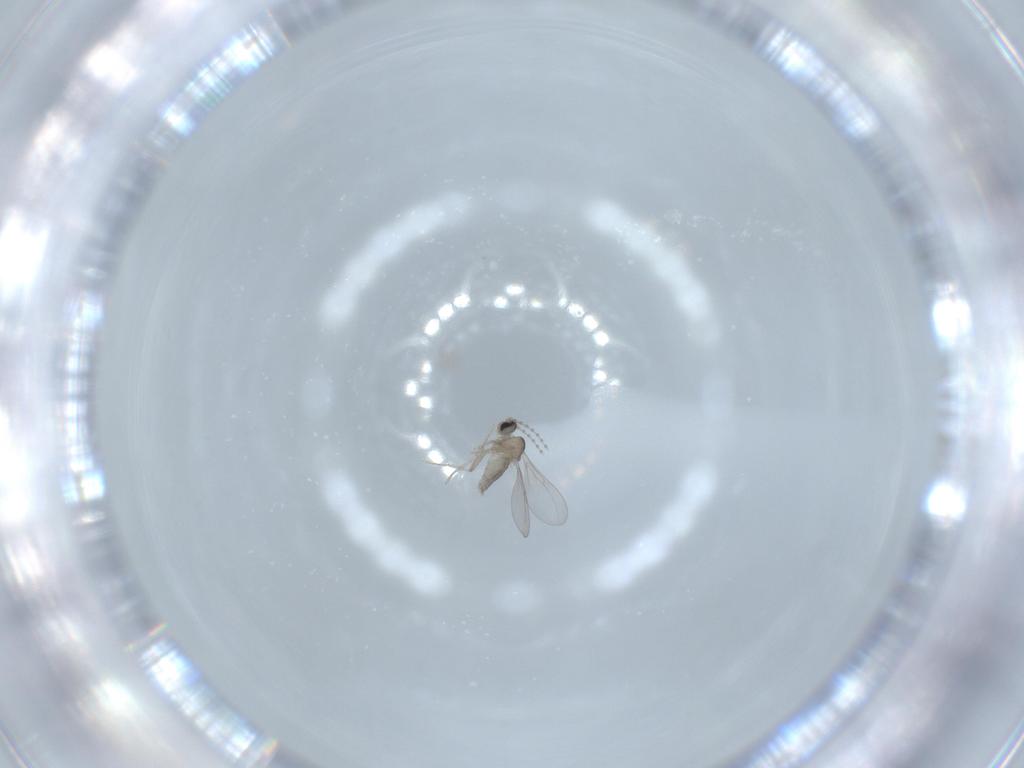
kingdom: Animalia
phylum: Arthropoda
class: Insecta
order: Diptera
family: Cecidomyiidae
